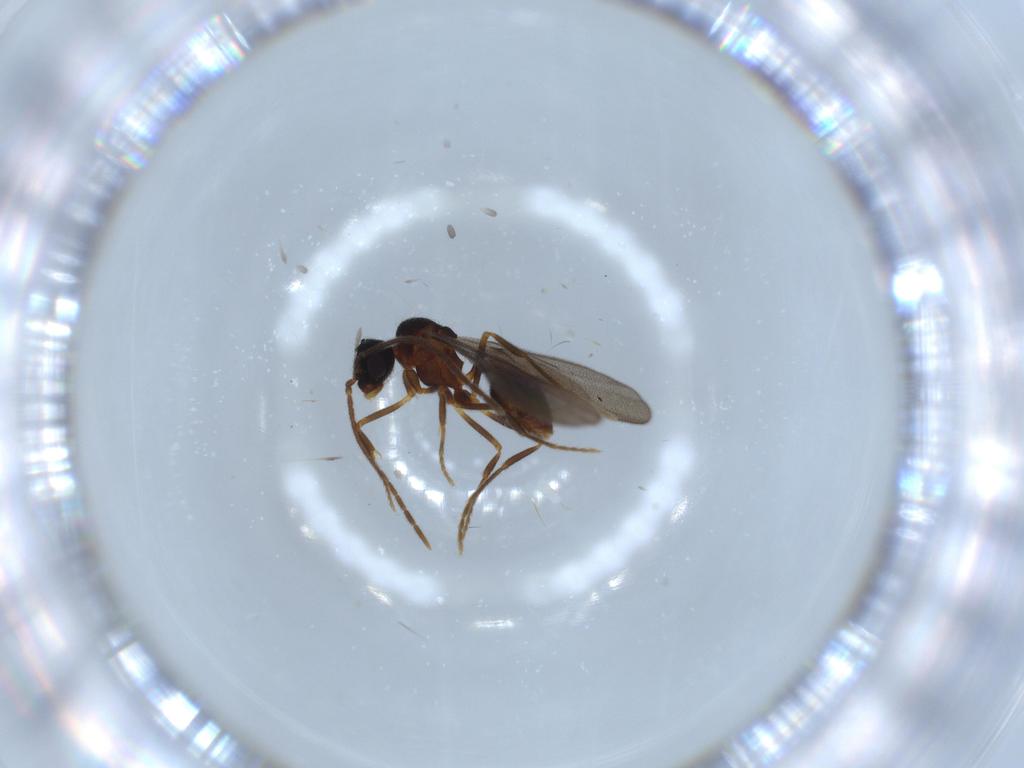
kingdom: Animalia
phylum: Arthropoda
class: Insecta
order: Hymenoptera
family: Formicidae
